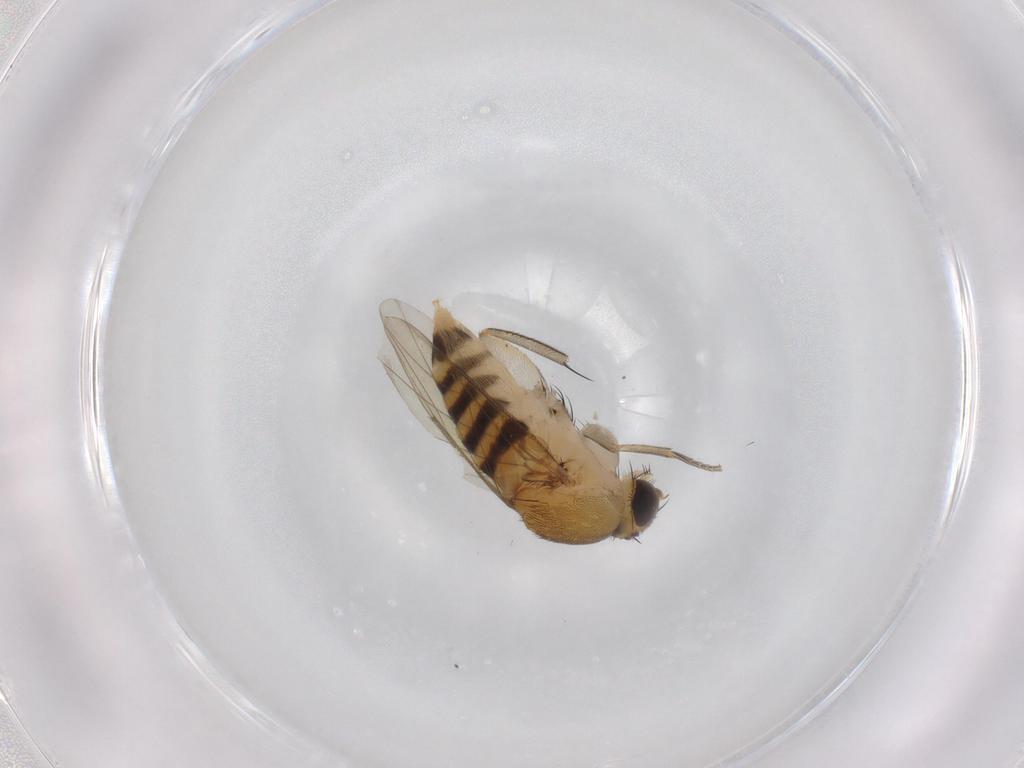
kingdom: Animalia
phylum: Arthropoda
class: Insecta
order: Diptera
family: Phoridae
